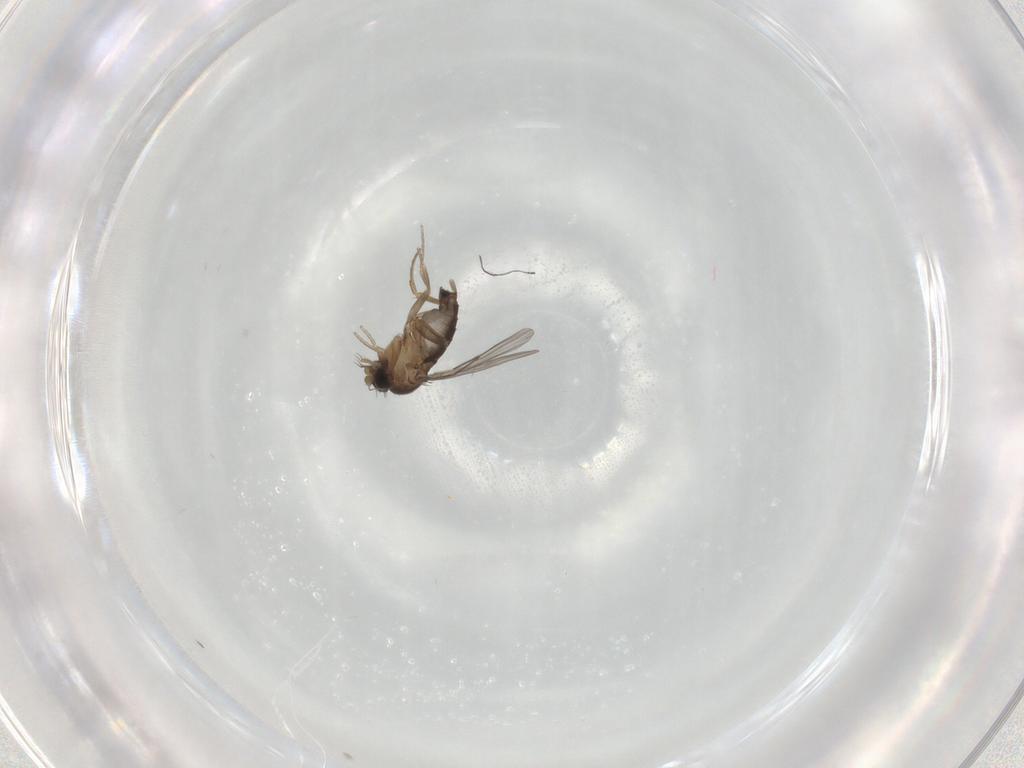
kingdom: Animalia
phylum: Arthropoda
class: Insecta
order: Diptera
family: Phoridae
